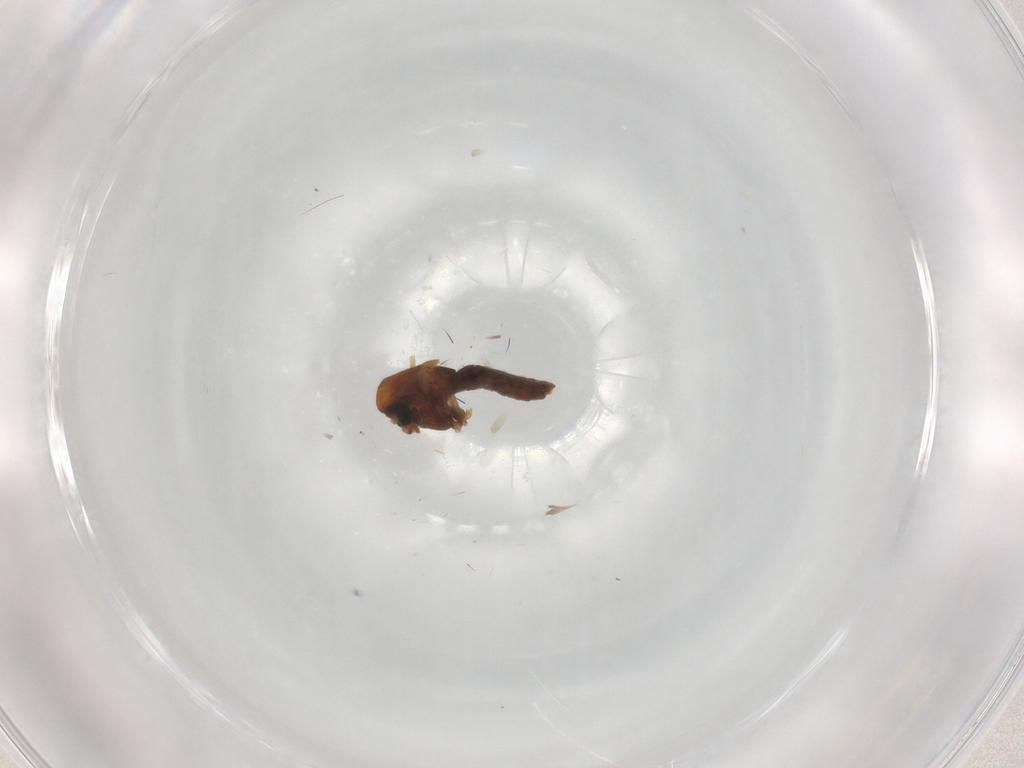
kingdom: Animalia
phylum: Arthropoda
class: Insecta
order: Diptera
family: Chironomidae
